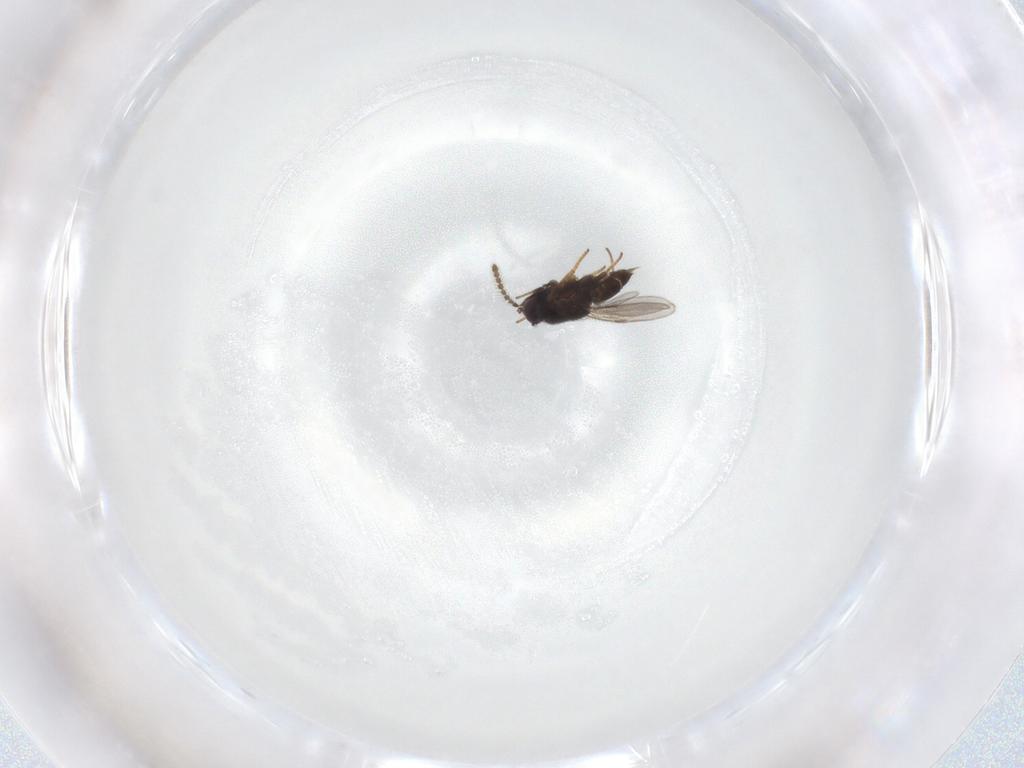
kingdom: Animalia
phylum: Arthropoda
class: Insecta
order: Hymenoptera
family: Encyrtidae
